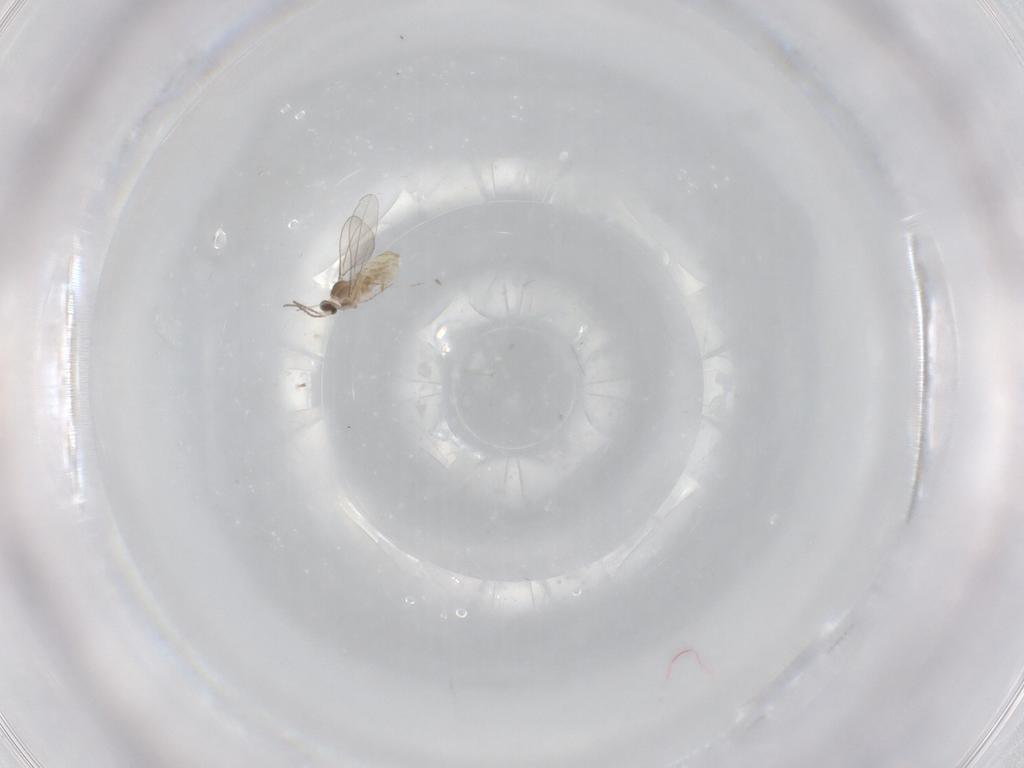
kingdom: Animalia
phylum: Arthropoda
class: Insecta
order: Diptera
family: Cecidomyiidae
